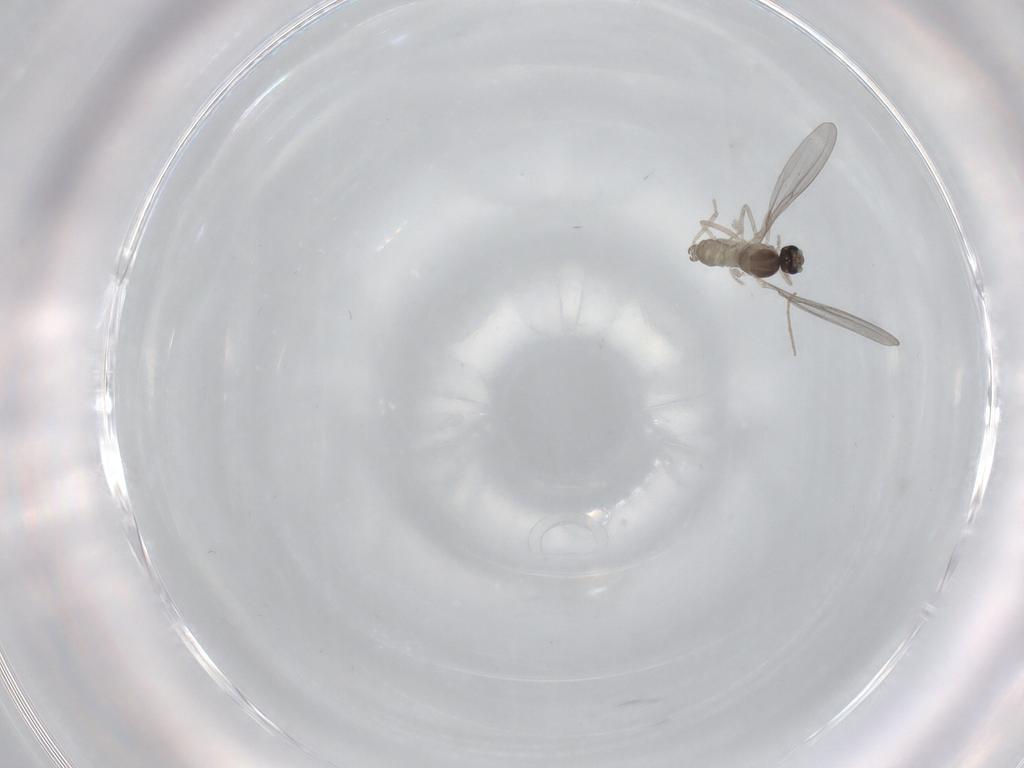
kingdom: Animalia
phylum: Arthropoda
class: Insecta
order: Diptera
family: Cecidomyiidae
